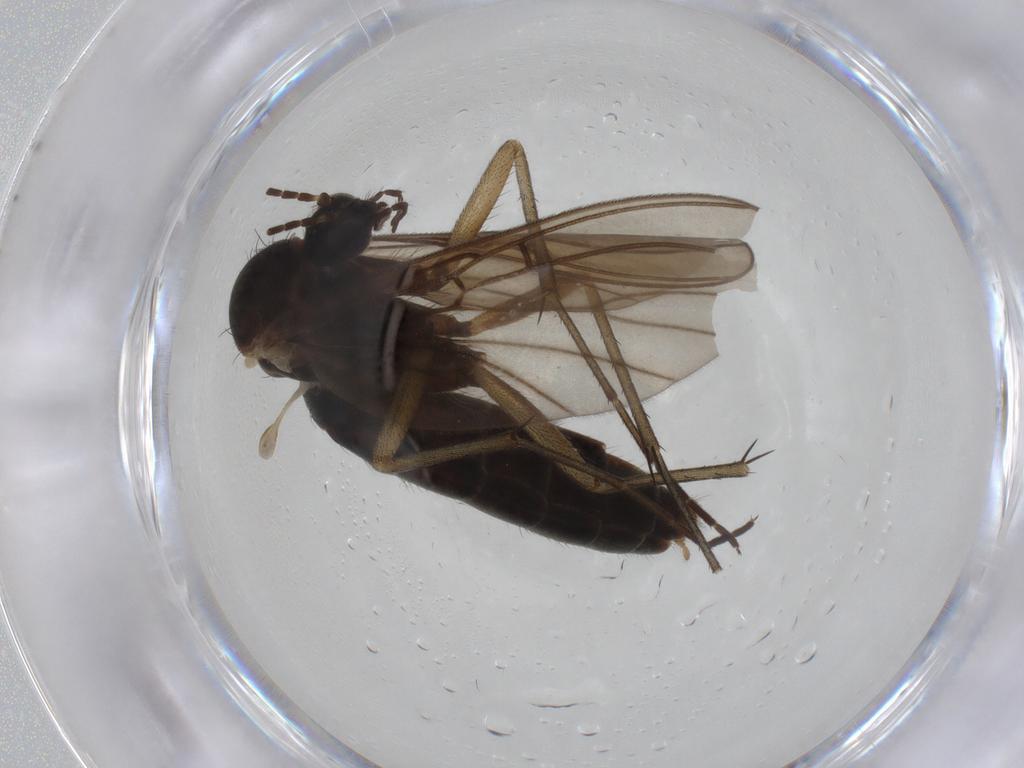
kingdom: Animalia
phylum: Arthropoda
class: Insecta
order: Diptera
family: Mycetophilidae
